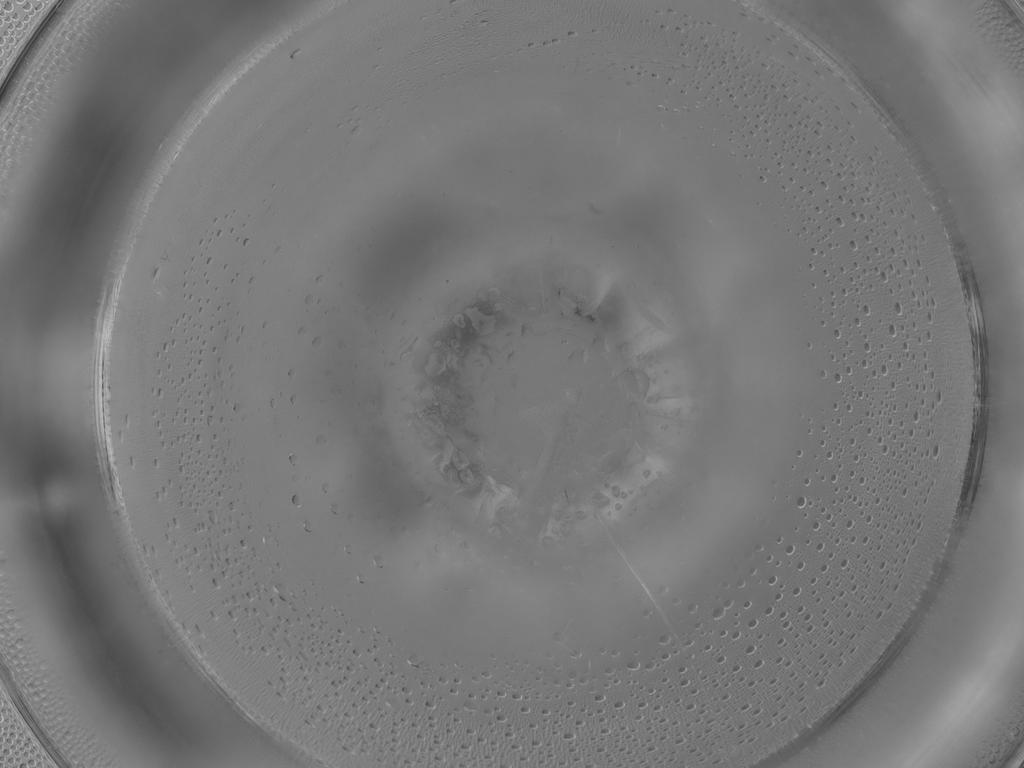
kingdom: Animalia
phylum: Arthropoda
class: Insecta
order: Diptera
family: Cecidomyiidae
